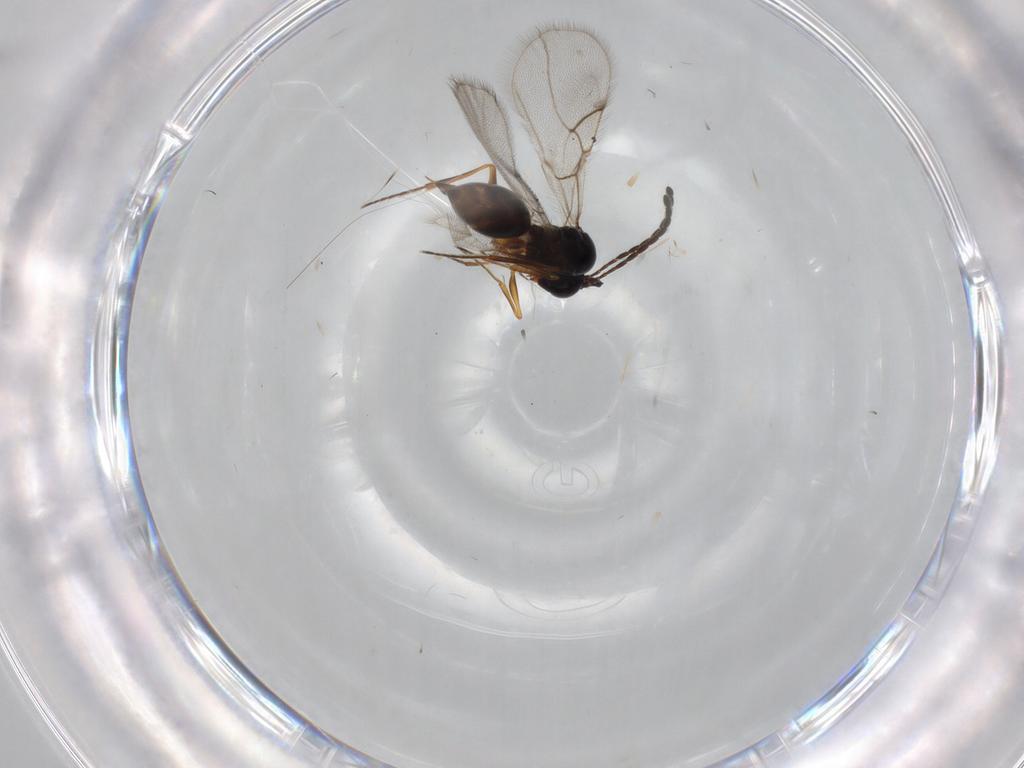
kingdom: Animalia
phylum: Arthropoda
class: Insecta
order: Hymenoptera
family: Figitidae
